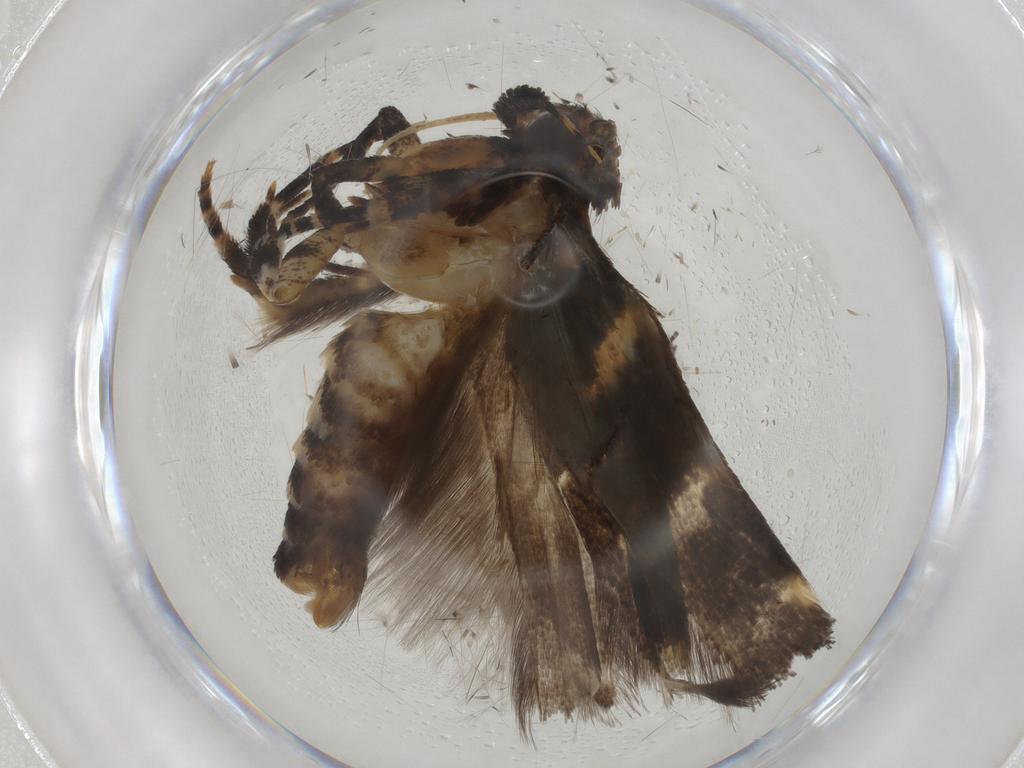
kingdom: Animalia
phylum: Arthropoda
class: Insecta
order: Lepidoptera
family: Gelechiidae
